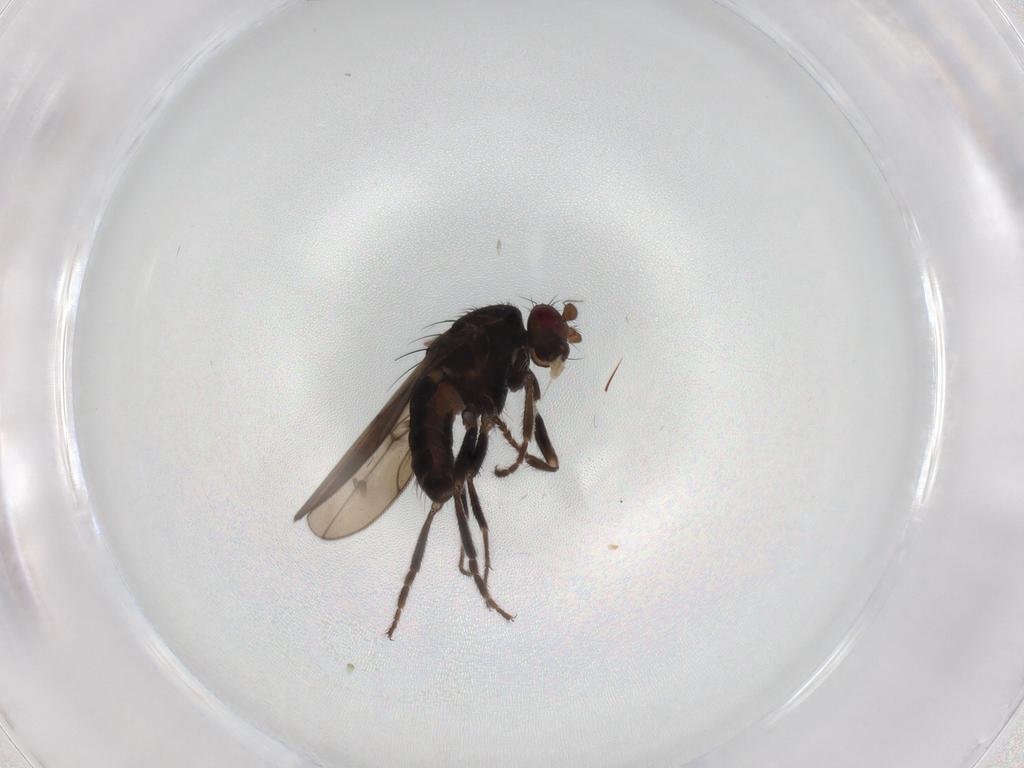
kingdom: Animalia
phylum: Arthropoda
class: Insecta
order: Diptera
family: Sphaeroceridae
